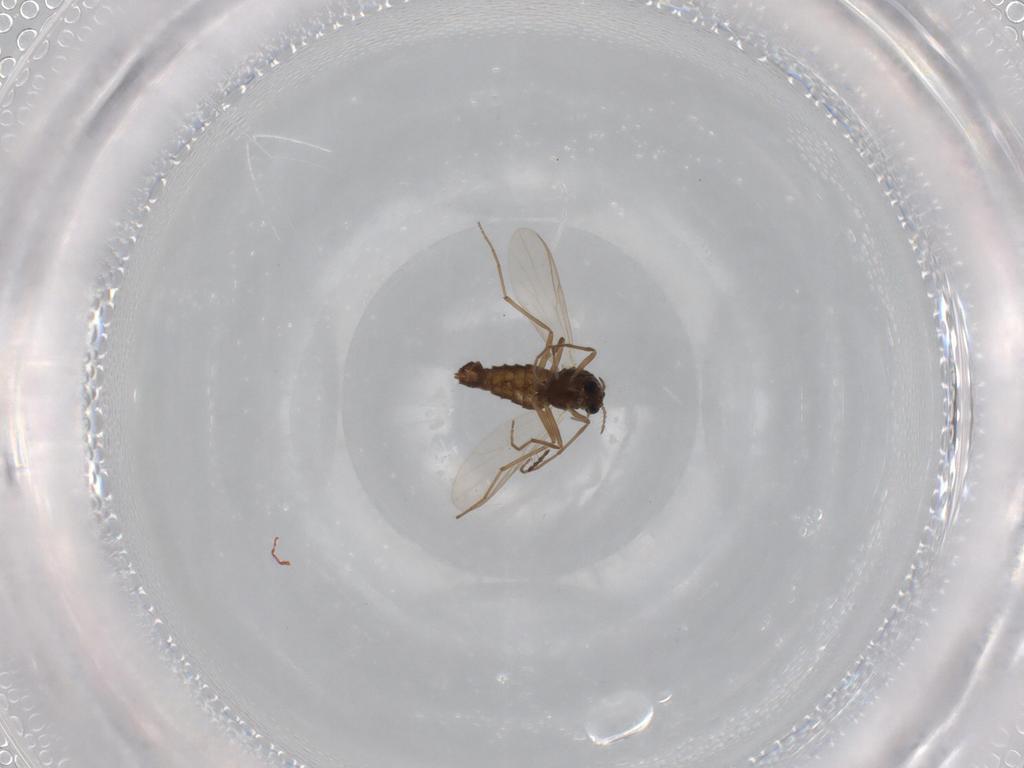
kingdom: Animalia
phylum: Arthropoda
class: Insecta
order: Diptera
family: Chironomidae
